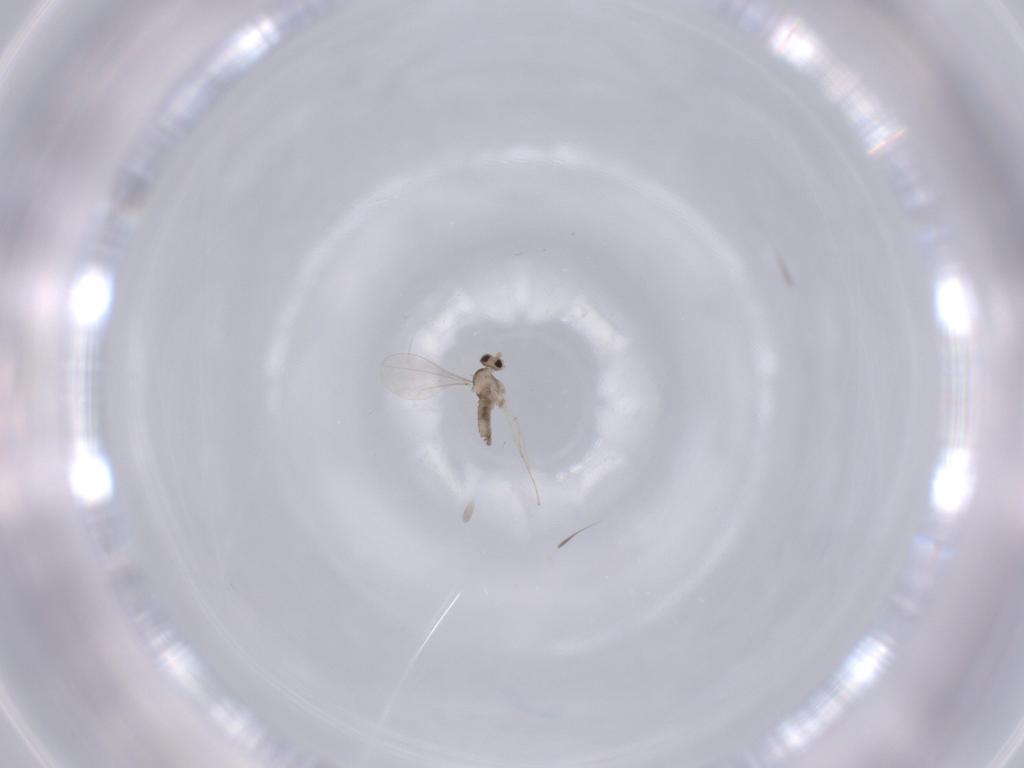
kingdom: Animalia
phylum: Arthropoda
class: Insecta
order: Diptera
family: Cecidomyiidae
